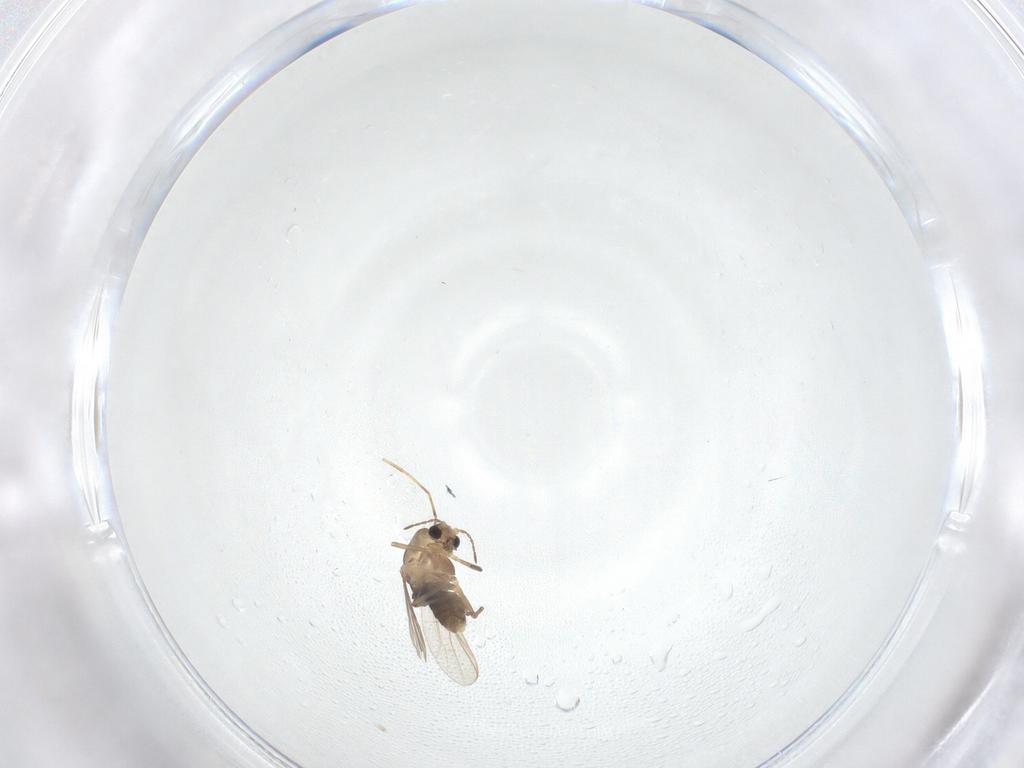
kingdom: Animalia
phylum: Arthropoda
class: Insecta
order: Diptera
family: Chironomidae
